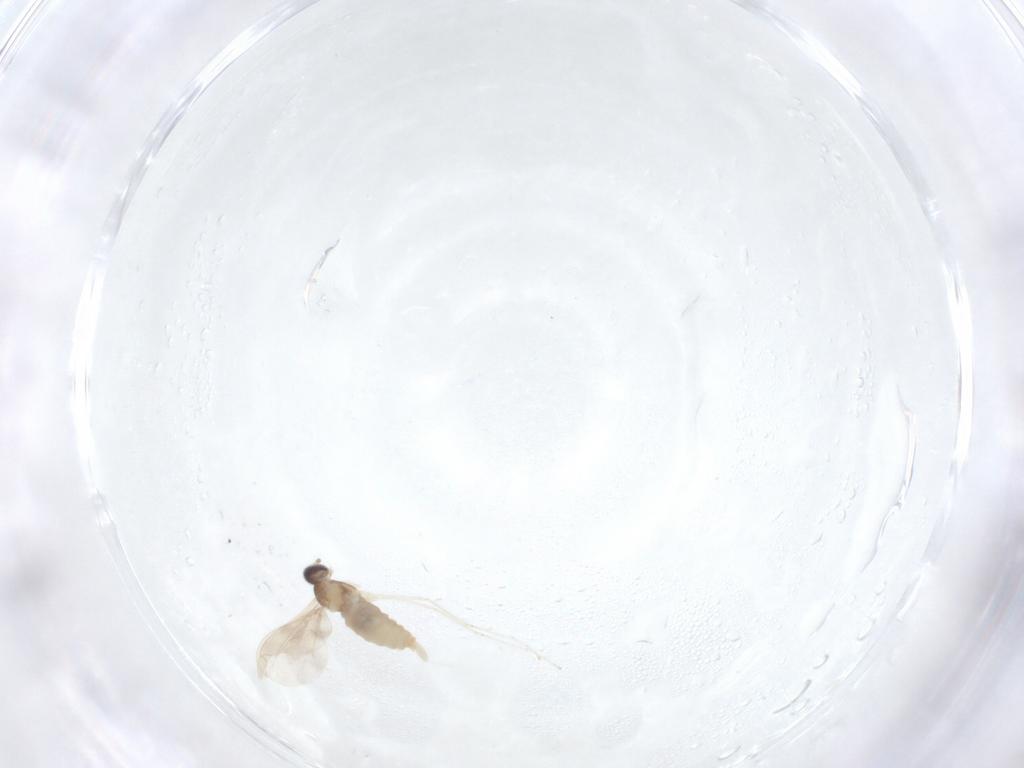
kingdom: Animalia
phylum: Arthropoda
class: Insecta
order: Diptera
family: Cecidomyiidae
